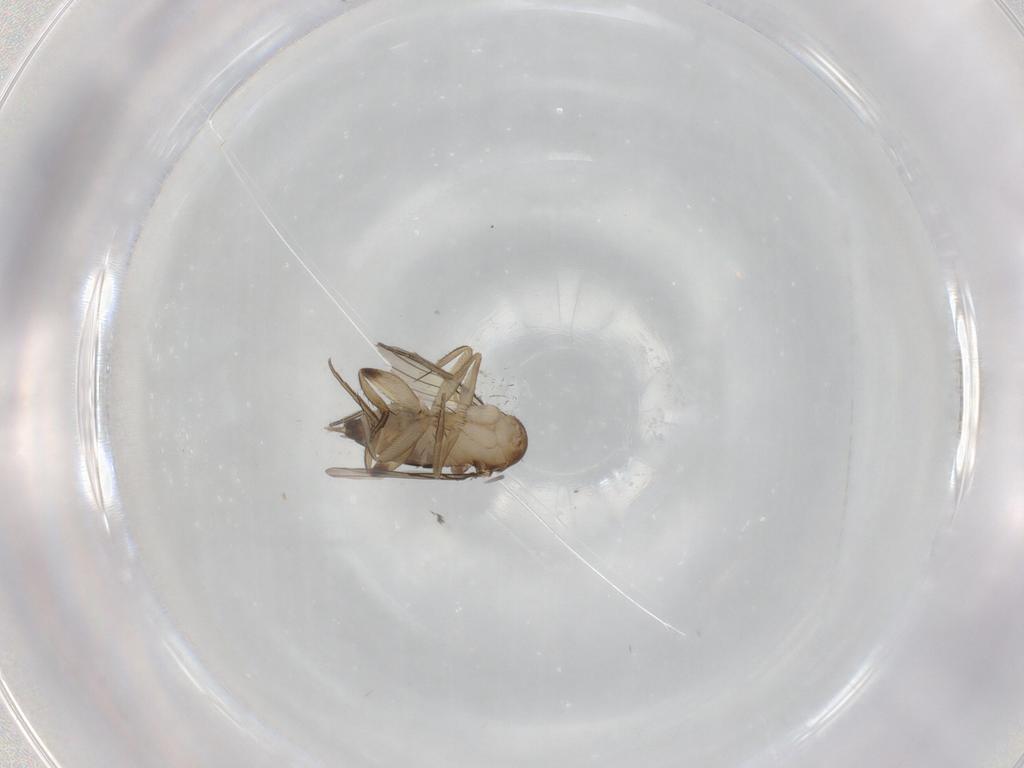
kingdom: Animalia
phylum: Arthropoda
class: Insecta
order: Diptera
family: Phoridae
